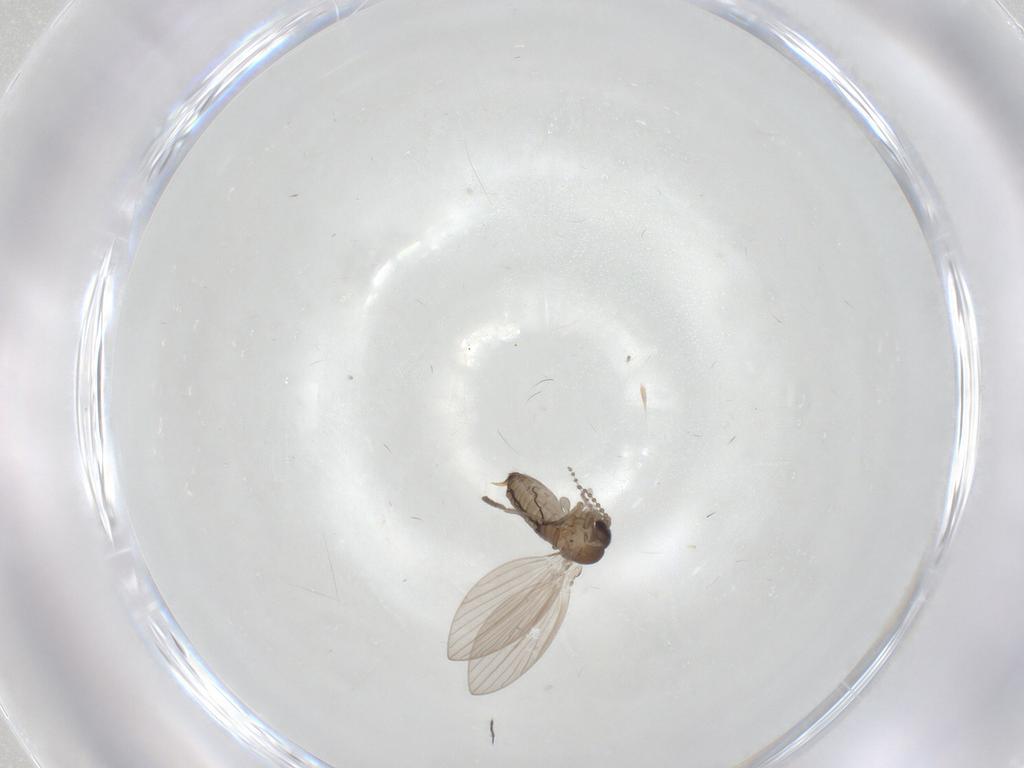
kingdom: Animalia
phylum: Arthropoda
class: Insecta
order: Diptera
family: Psychodidae
